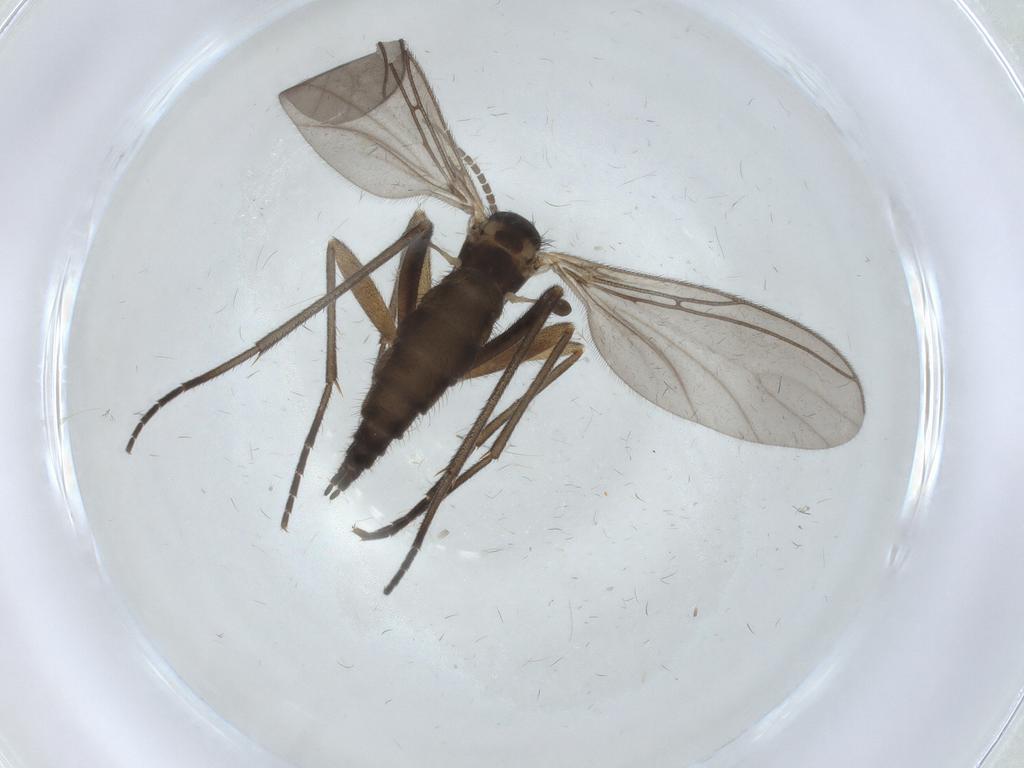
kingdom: Animalia
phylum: Arthropoda
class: Insecta
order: Diptera
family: Sciaridae
